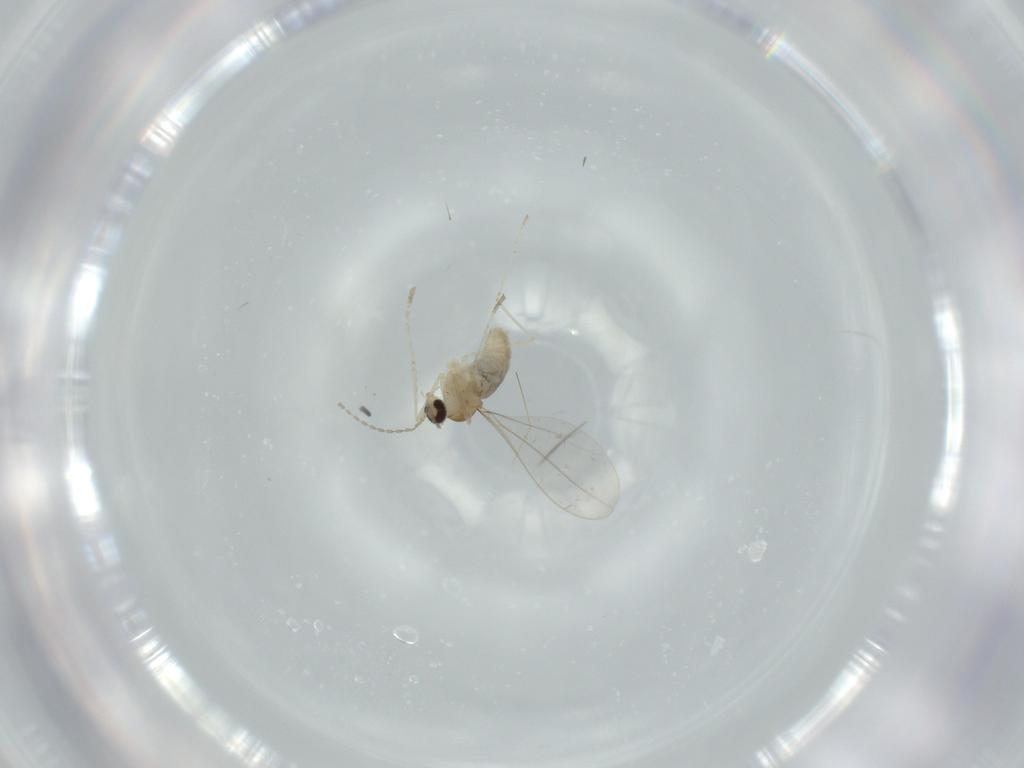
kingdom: Animalia
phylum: Arthropoda
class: Insecta
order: Diptera
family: Cecidomyiidae
